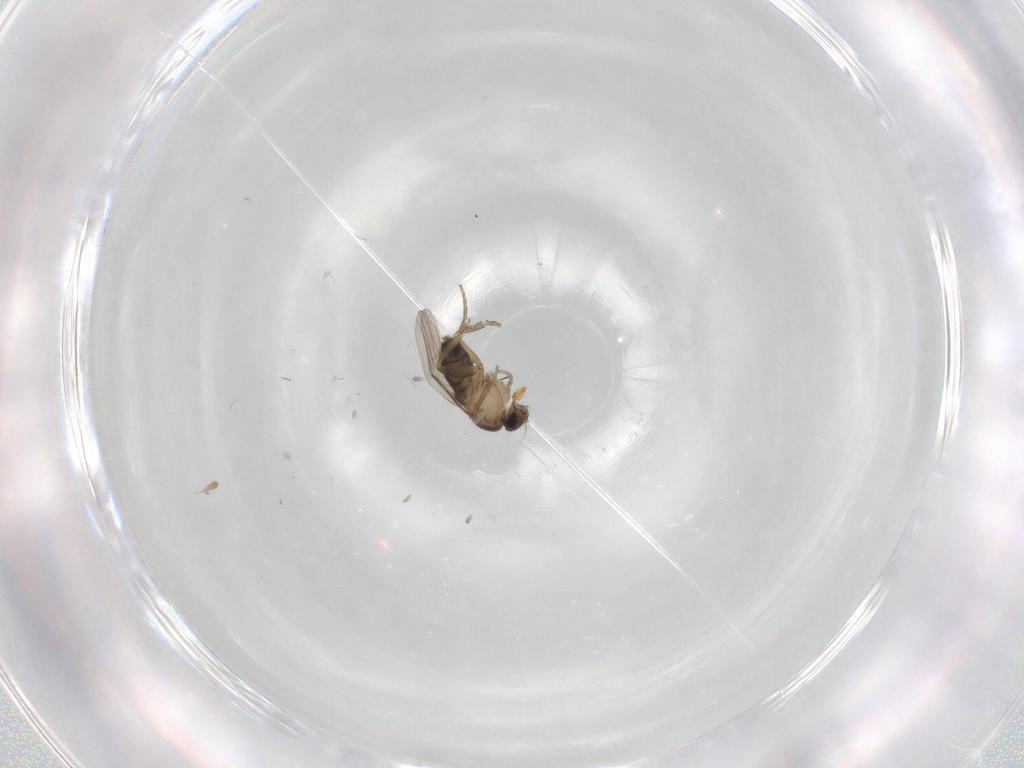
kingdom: Animalia
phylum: Arthropoda
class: Insecta
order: Diptera
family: Phoridae
